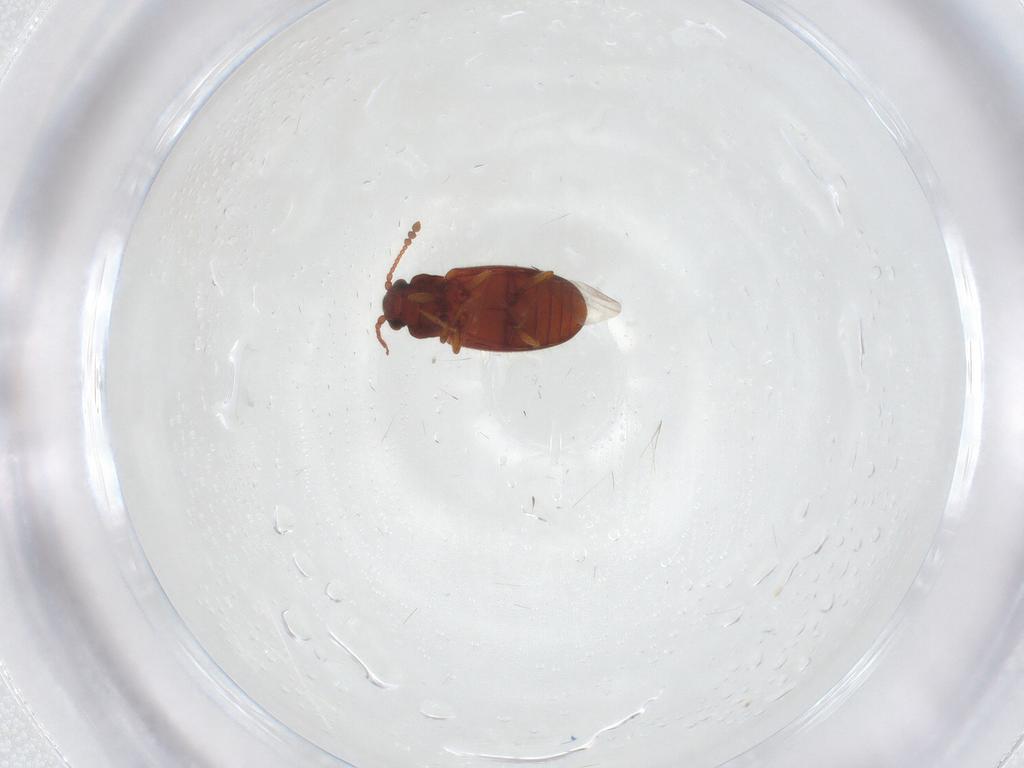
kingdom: Animalia
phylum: Arthropoda
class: Insecta
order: Coleoptera
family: Cryptophagidae
